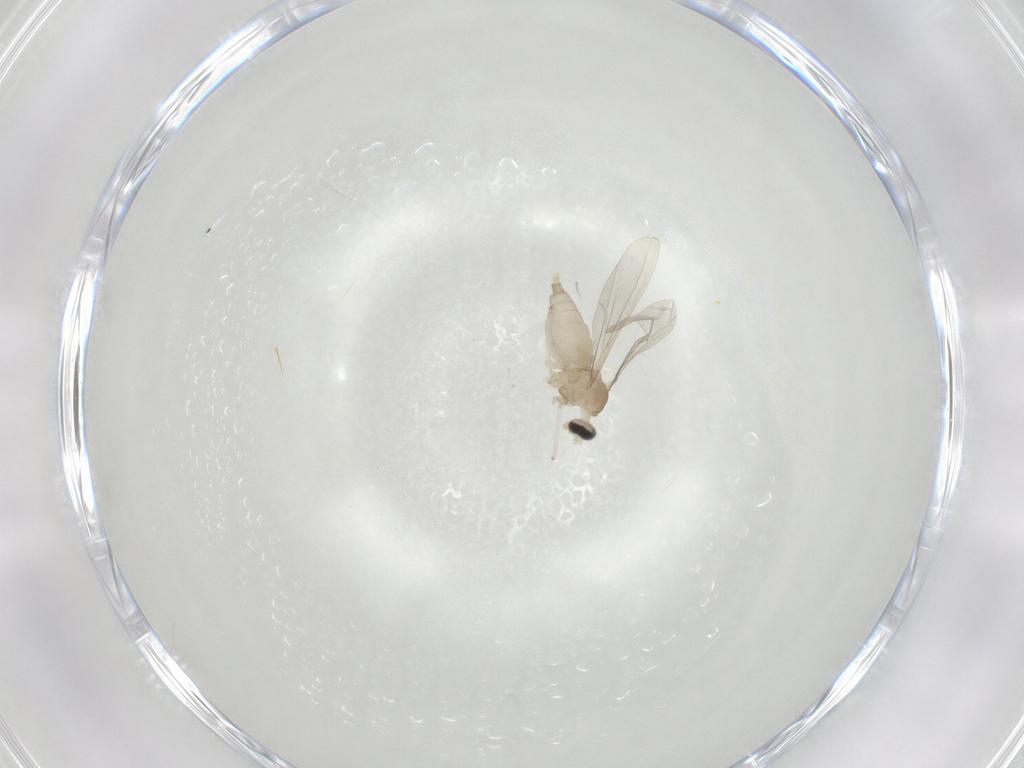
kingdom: Animalia
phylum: Arthropoda
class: Insecta
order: Diptera
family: Cecidomyiidae
